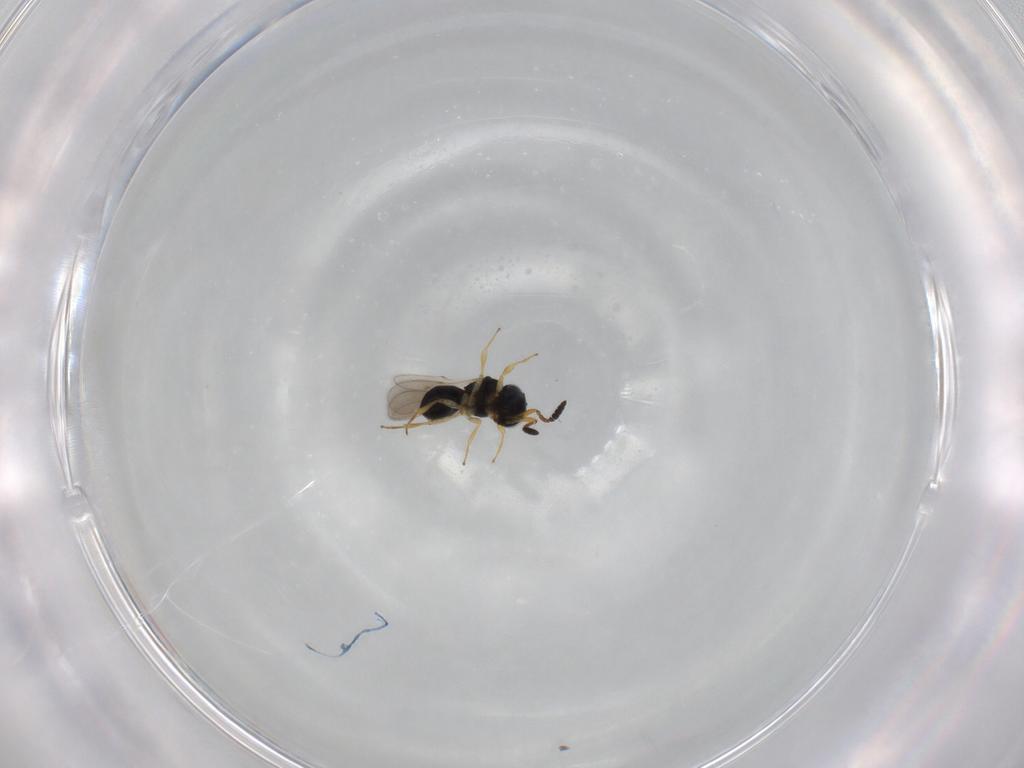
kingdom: Animalia
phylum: Arthropoda
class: Insecta
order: Hymenoptera
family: Scelionidae
